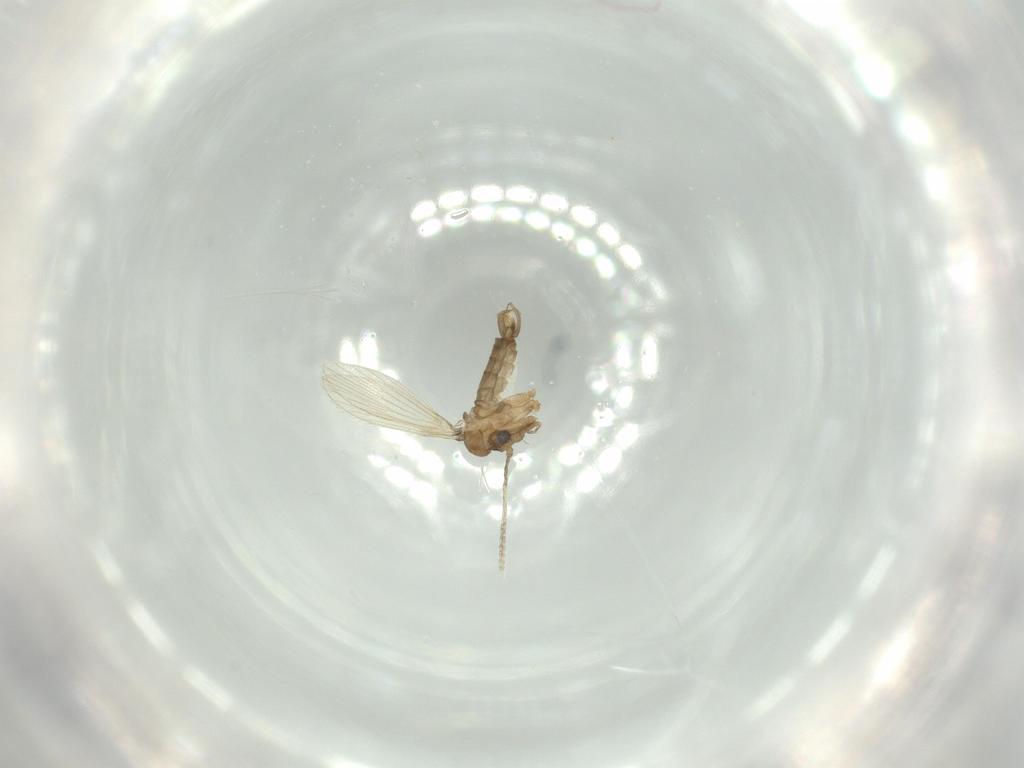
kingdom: Animalia
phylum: Arthropoda
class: Insecta
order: Diptera
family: Psychodidae
